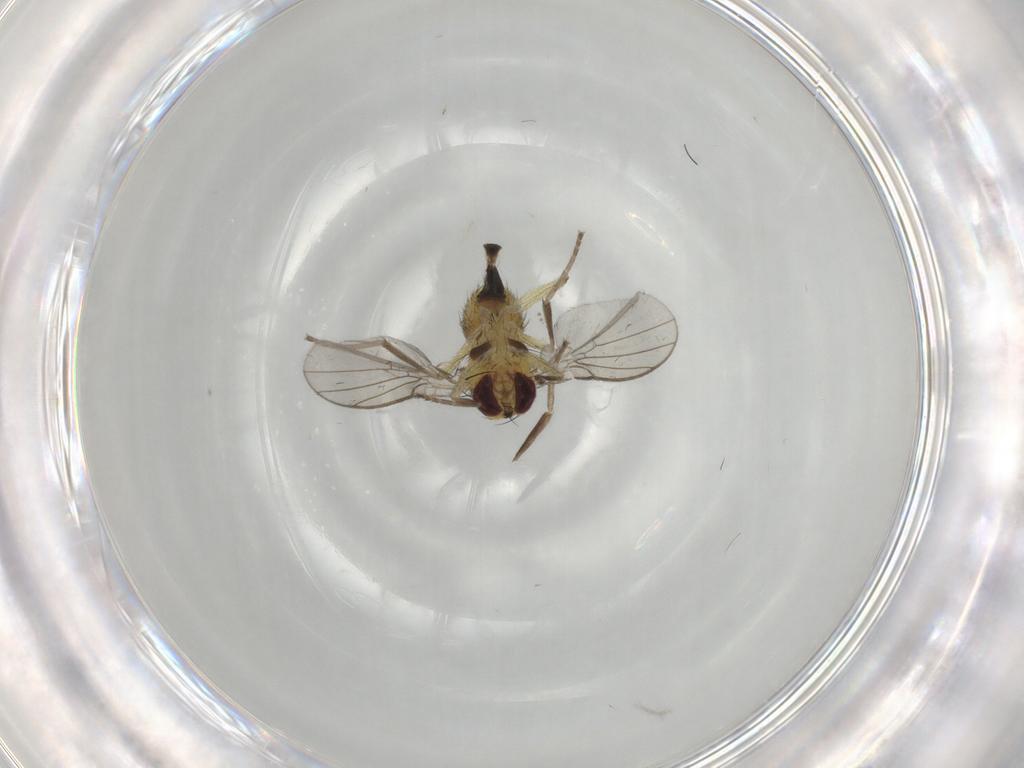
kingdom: Animalia
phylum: Arthropoda
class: Insecta
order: Diptera
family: Agromyzidae
